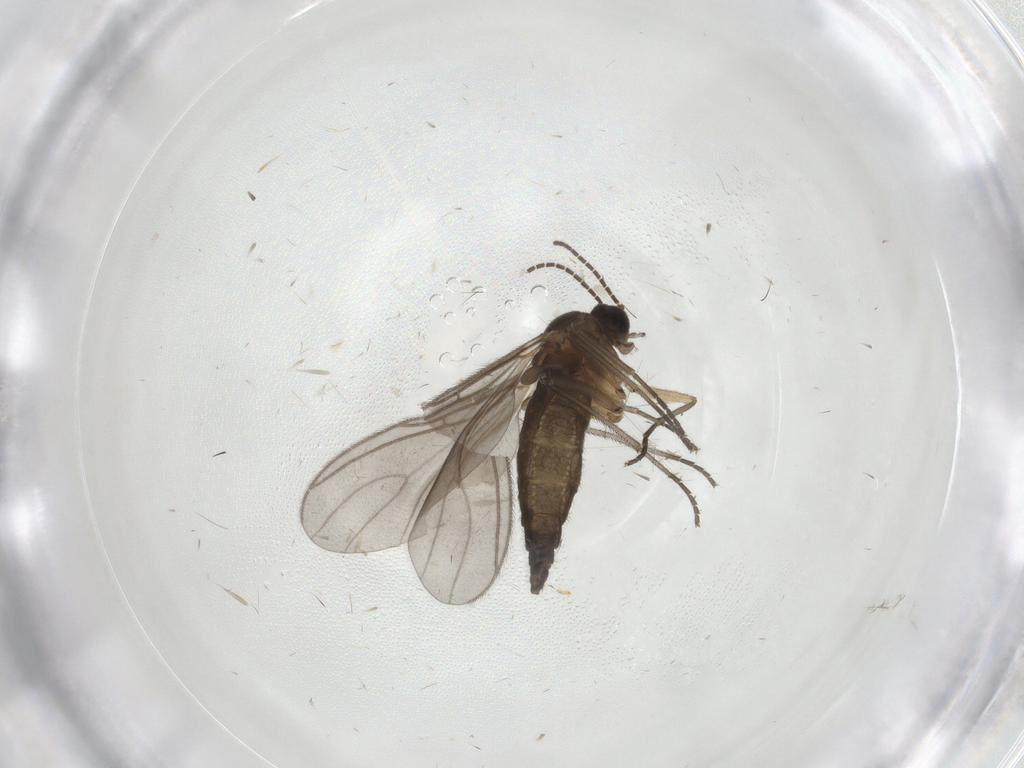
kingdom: Animalia
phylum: Arthropoda
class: Insecta
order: Diptera
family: Sciaridae
